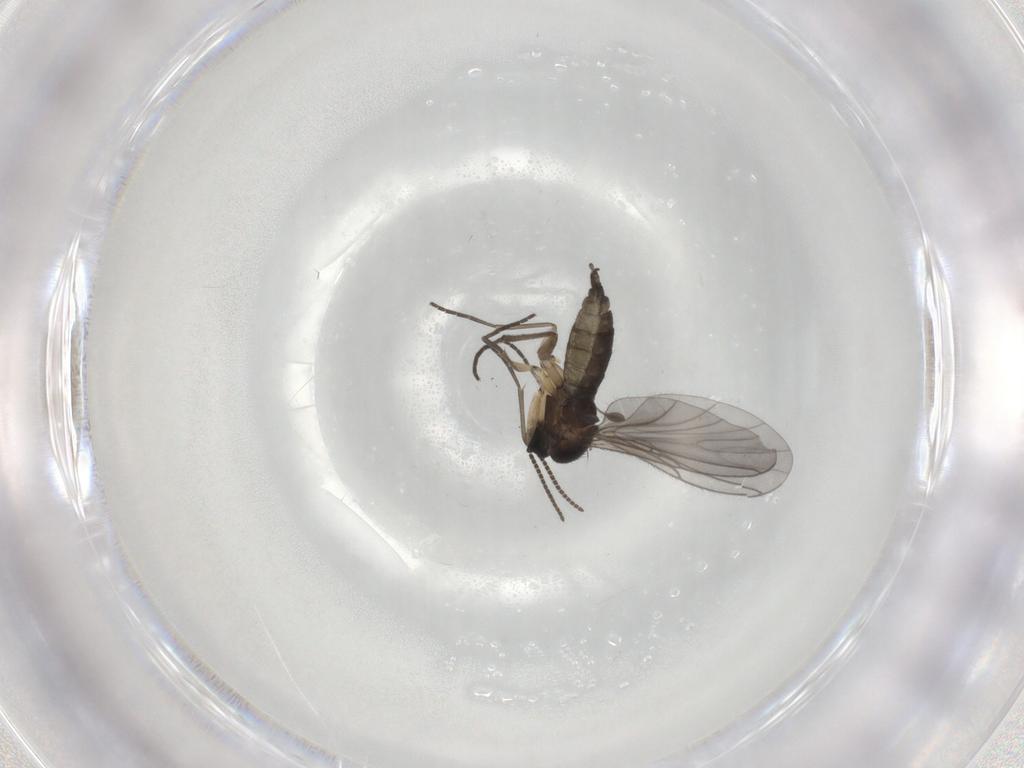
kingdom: Animalia
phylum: Arthropoda
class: Insecta
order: Diptera
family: Sciaridae
